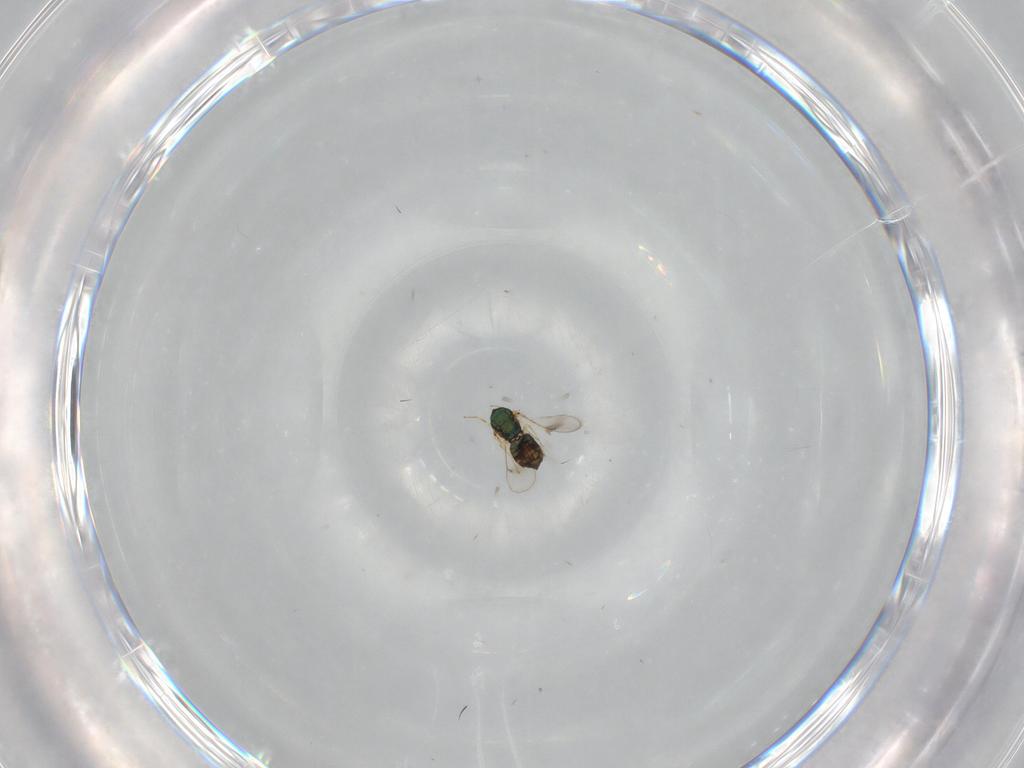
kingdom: Animalia
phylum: Arthropoda
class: Insecta
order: Hymenoptera
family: Eulophidae
